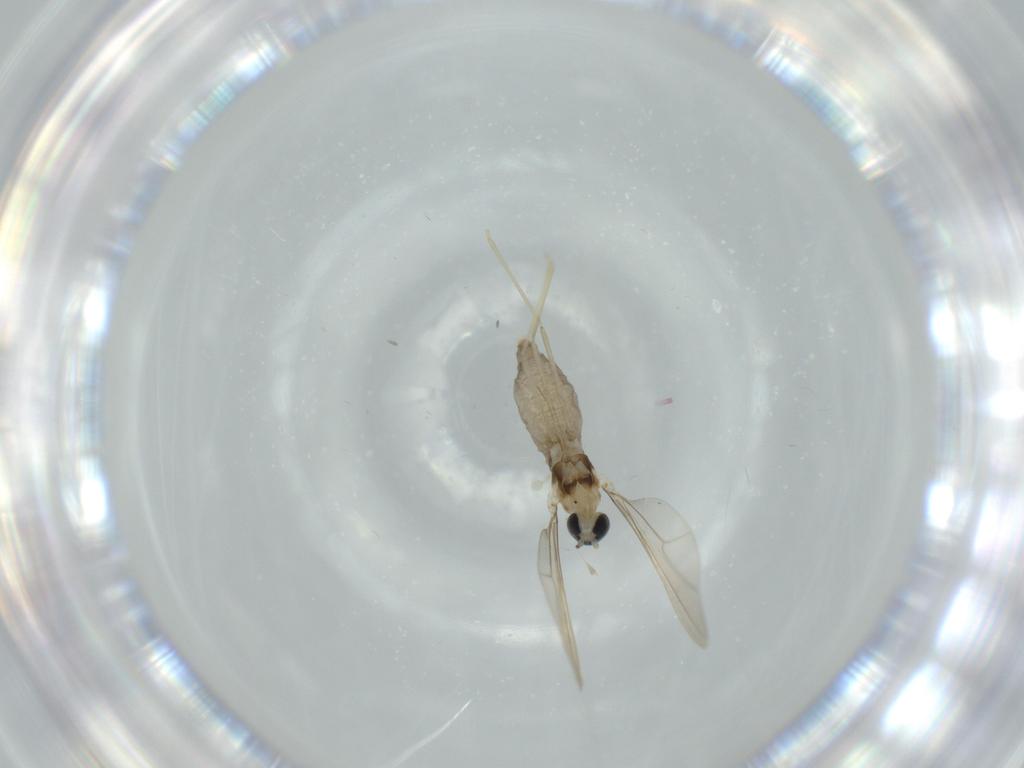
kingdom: Animalia
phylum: Arthropoda
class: Insecta
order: Diptera
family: Cecidomyiidae
